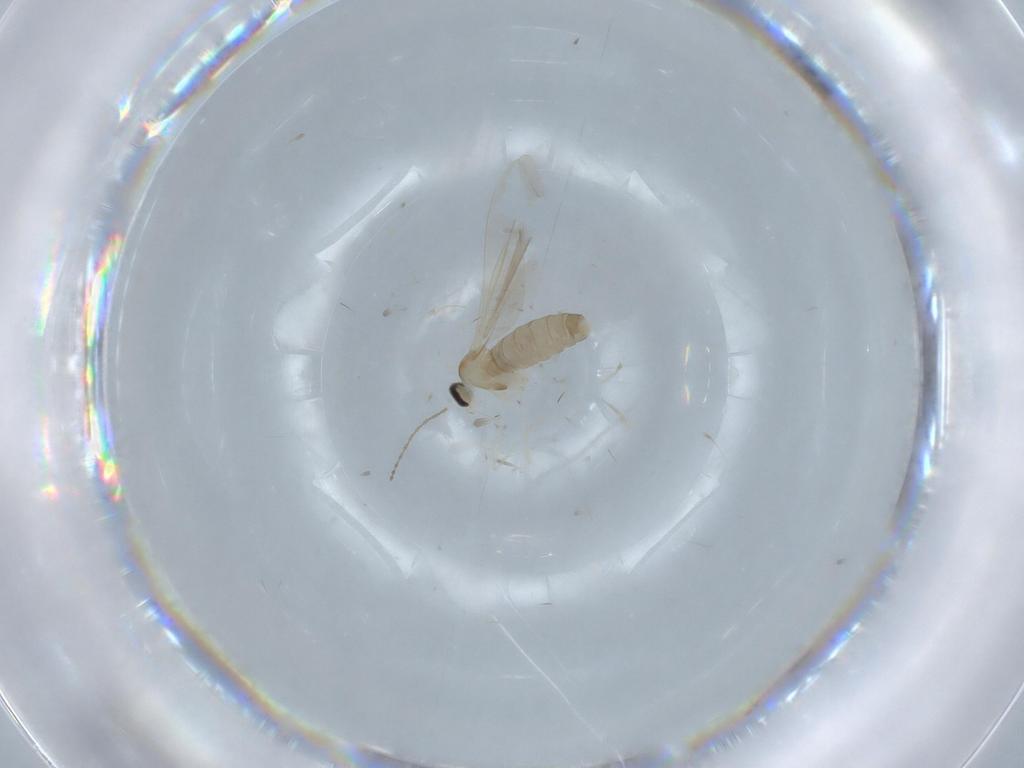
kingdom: Animalia
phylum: Arthropoda
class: Insecta
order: Diptera
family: Cecidomyiidae
